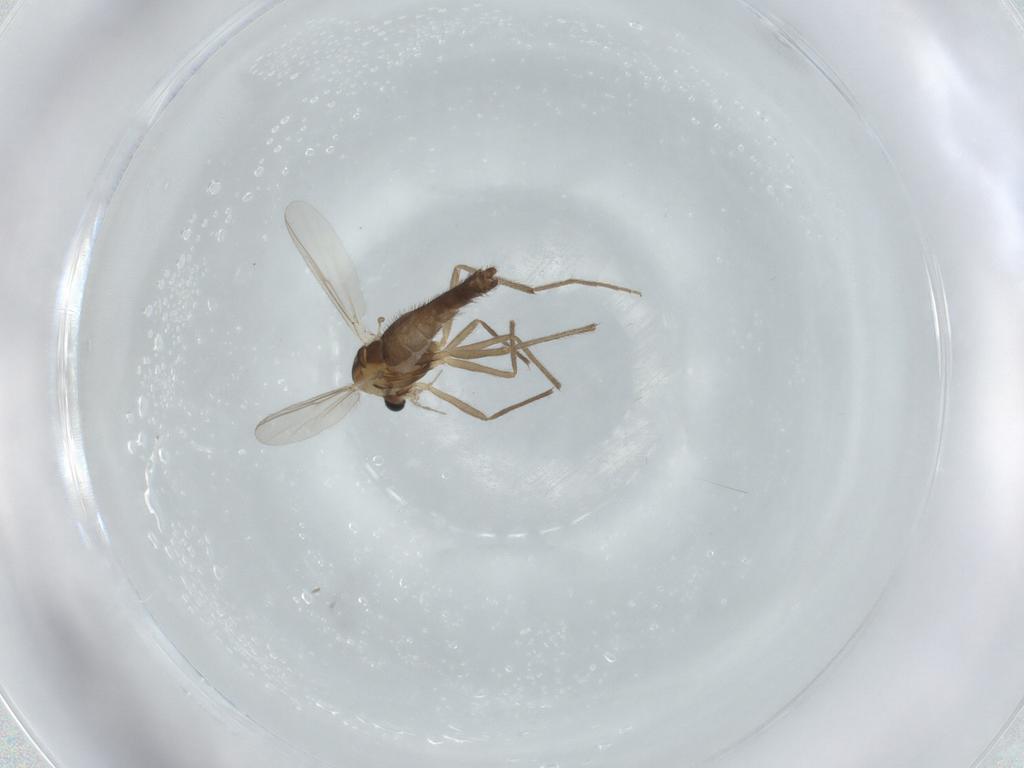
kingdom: Animalia
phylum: Arthropoda
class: Insecta
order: Diptera
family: Chironomidae
